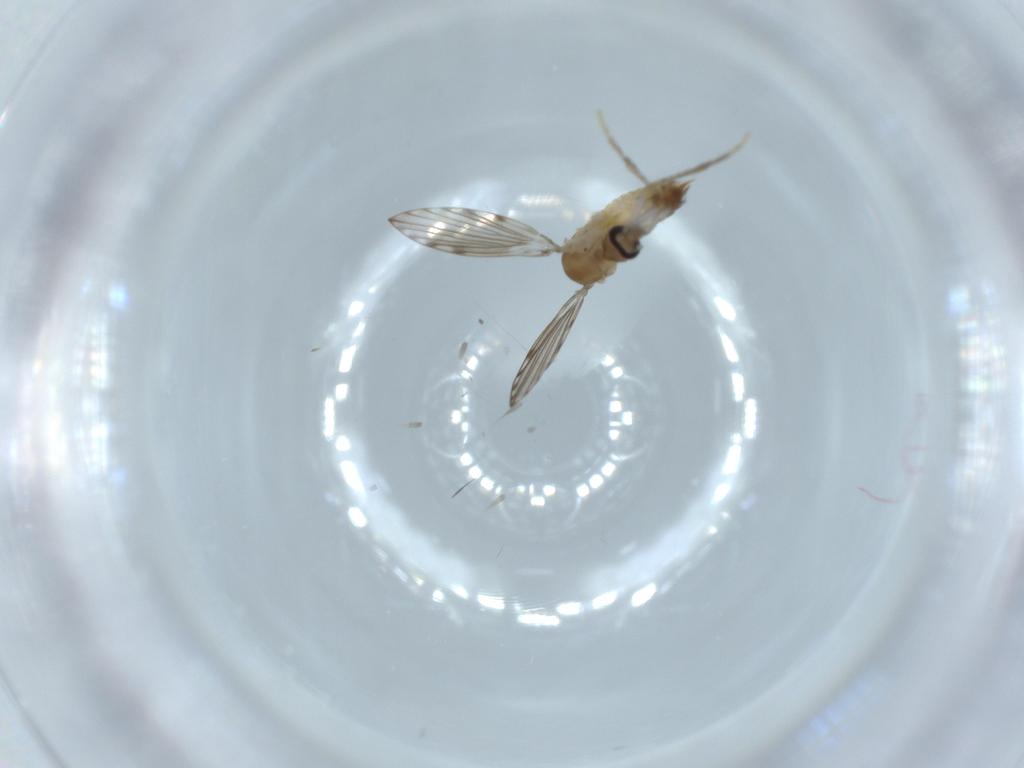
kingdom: Animalia
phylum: Arthropoda
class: Insecta
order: Diptera
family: Psychodidae
